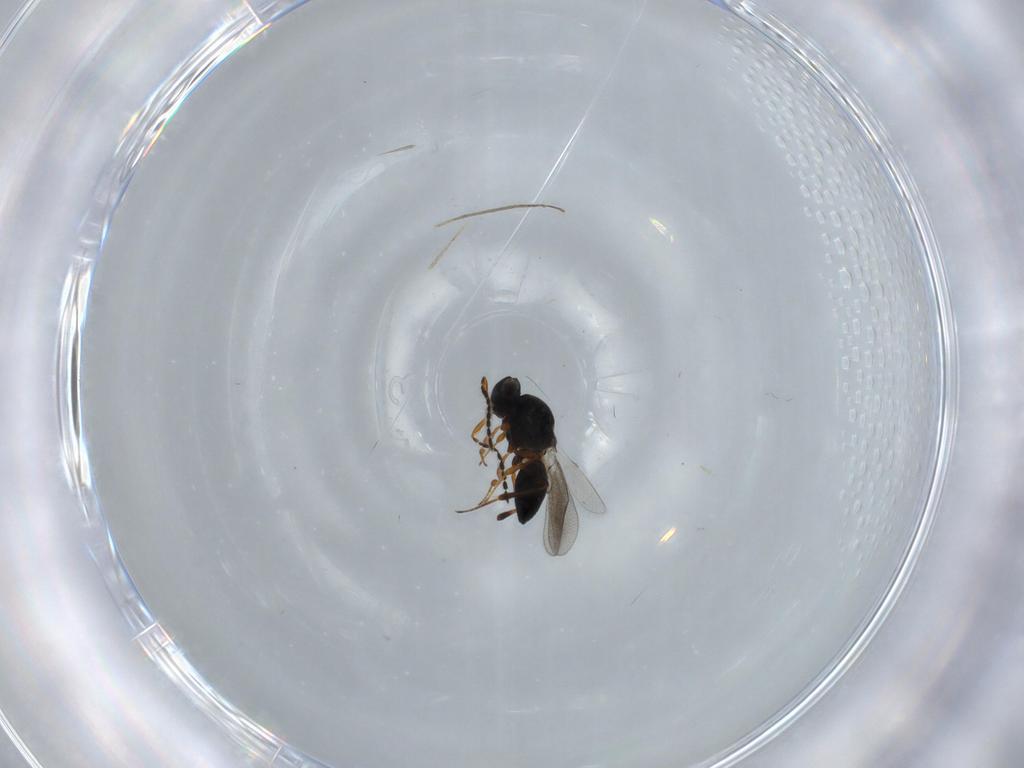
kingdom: Animalia
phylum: Arthropoda
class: Insecta
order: Hymenoptera
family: Platygastridae
